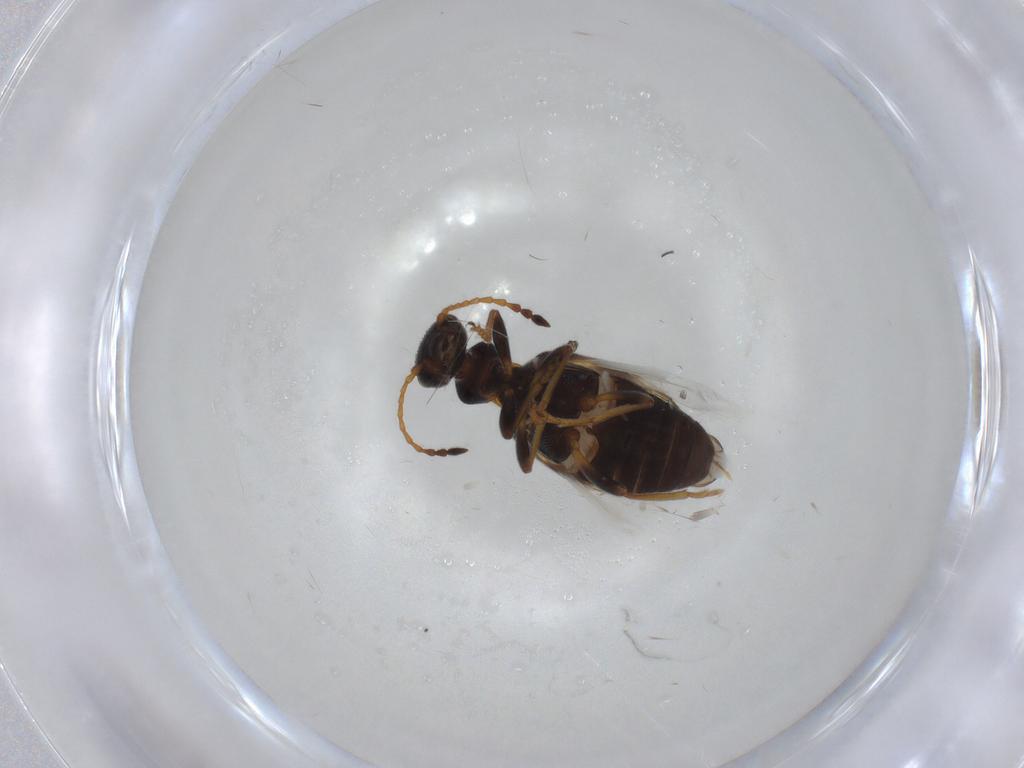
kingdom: Animalia
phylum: Arthropoda
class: Insecta
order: Coleoptera
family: Anthicidae
